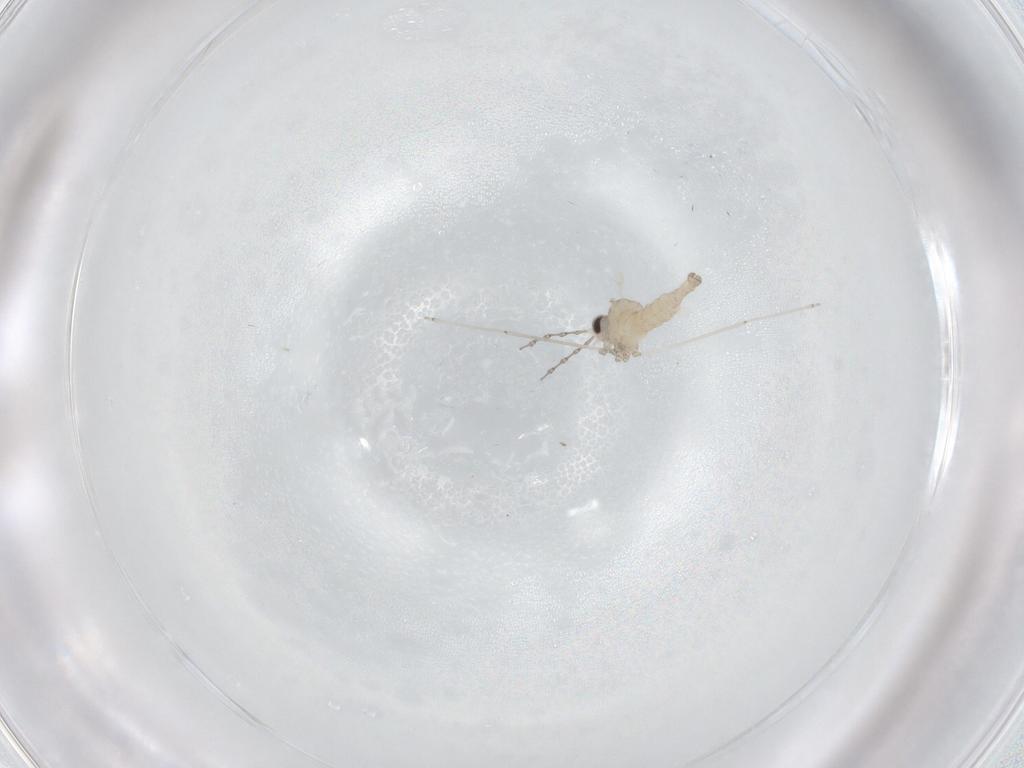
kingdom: Animalia
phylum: Arthropoda
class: Insecta
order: Diptera
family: Cecidomyiidae
